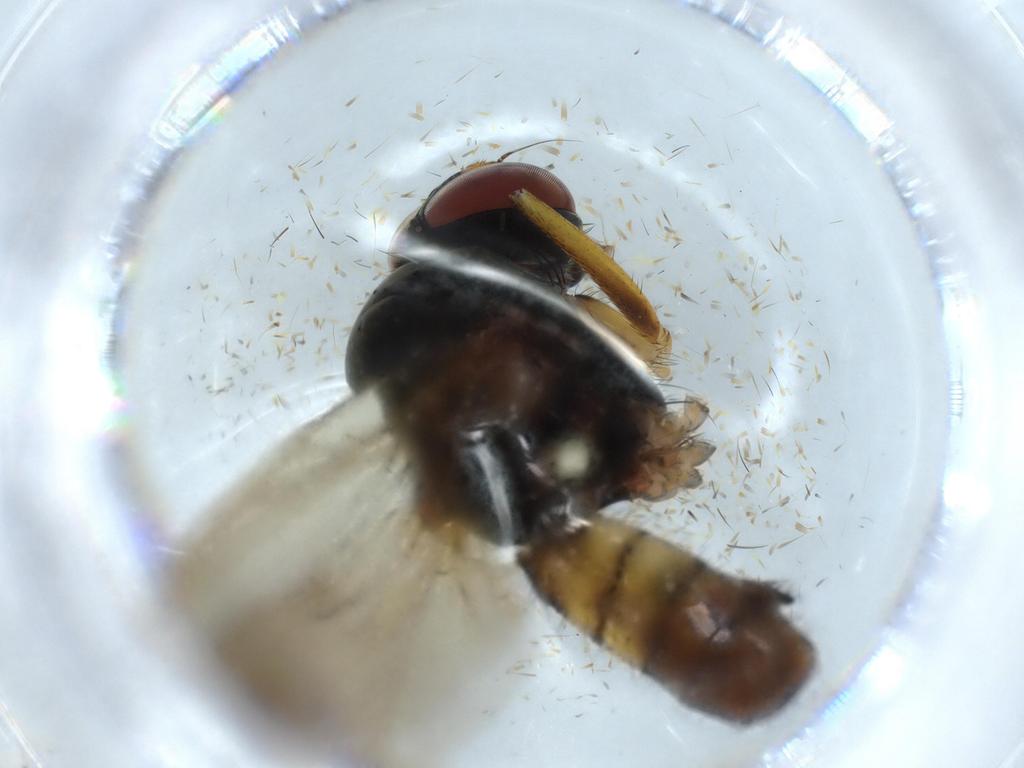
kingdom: Animalia
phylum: Arthropoda
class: Insecta
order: Diptera
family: Anthomyiidae
